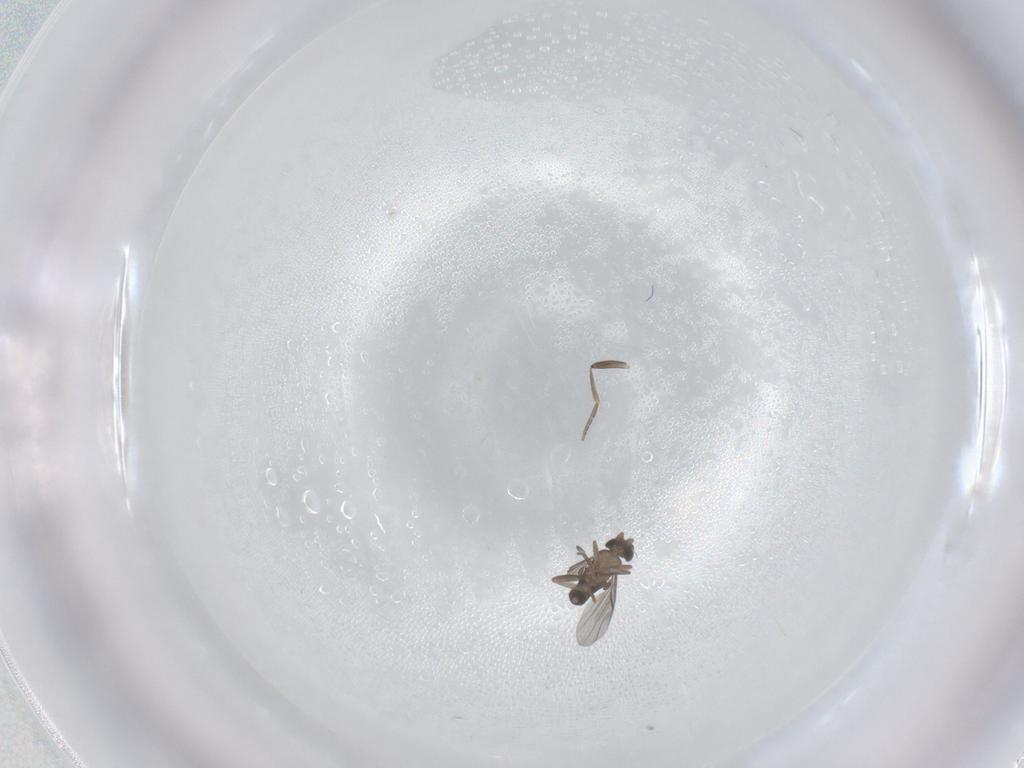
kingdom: Animalia
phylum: Arthropoda
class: Insecta
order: Diptera
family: Phoridae
